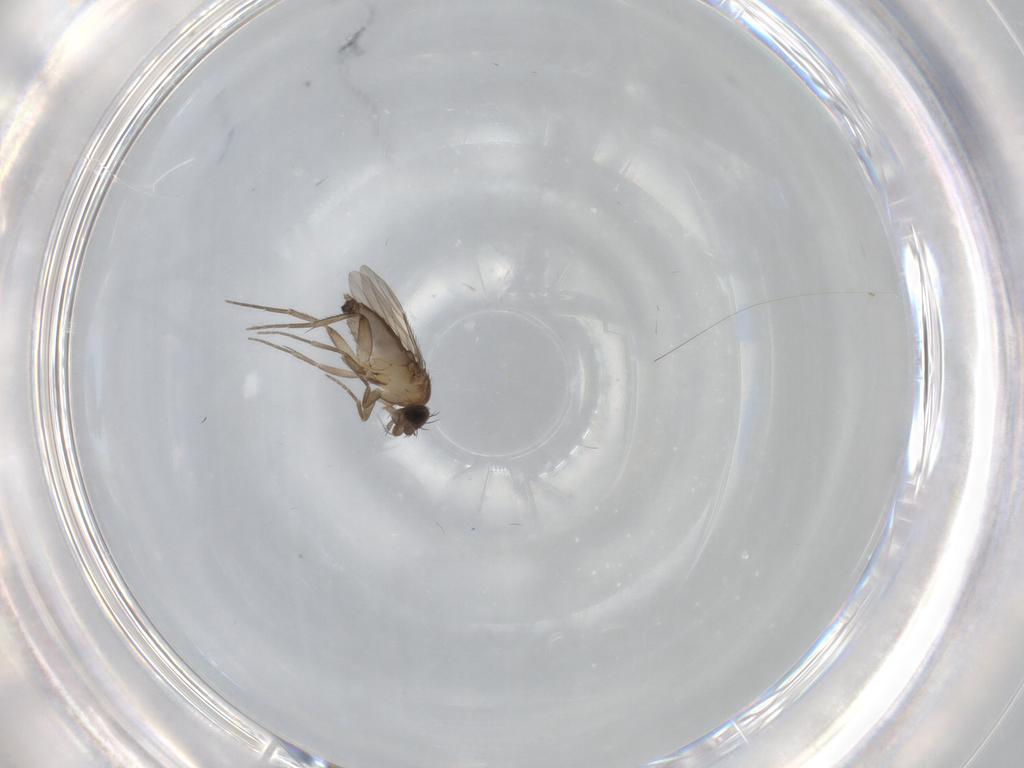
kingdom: Animalia
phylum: Arthropoda
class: Insecta
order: Diptera
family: Phoridae
